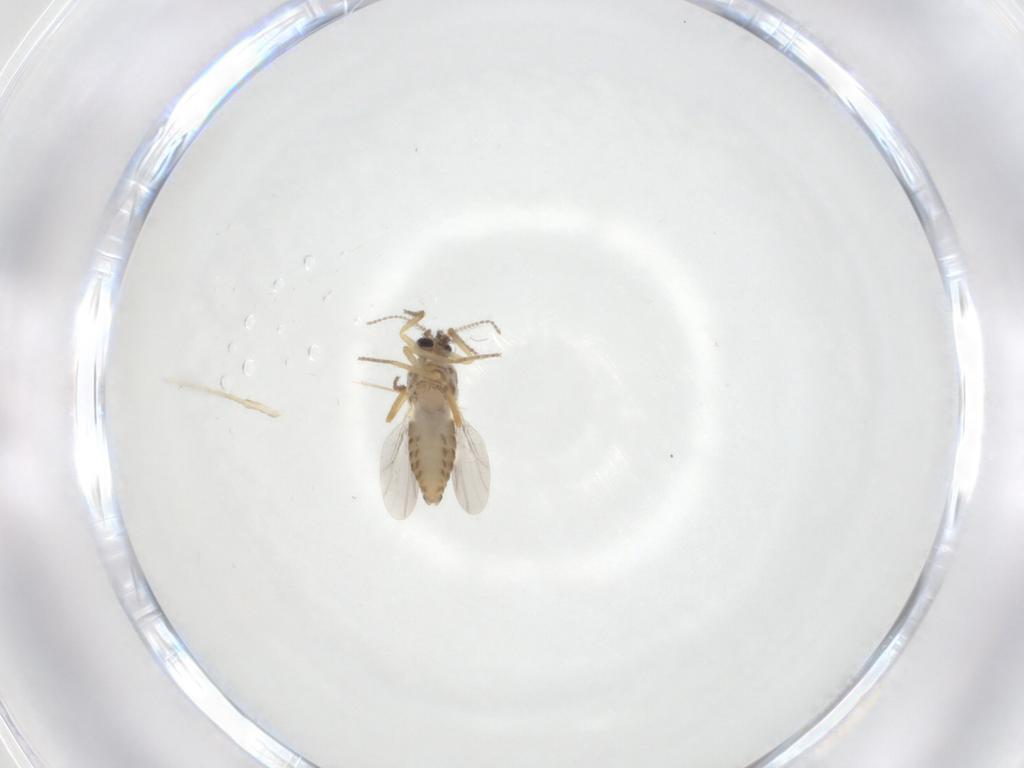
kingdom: Animalia
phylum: Arthropoda
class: Insecta
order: Diptera
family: Ceratopogonidae
